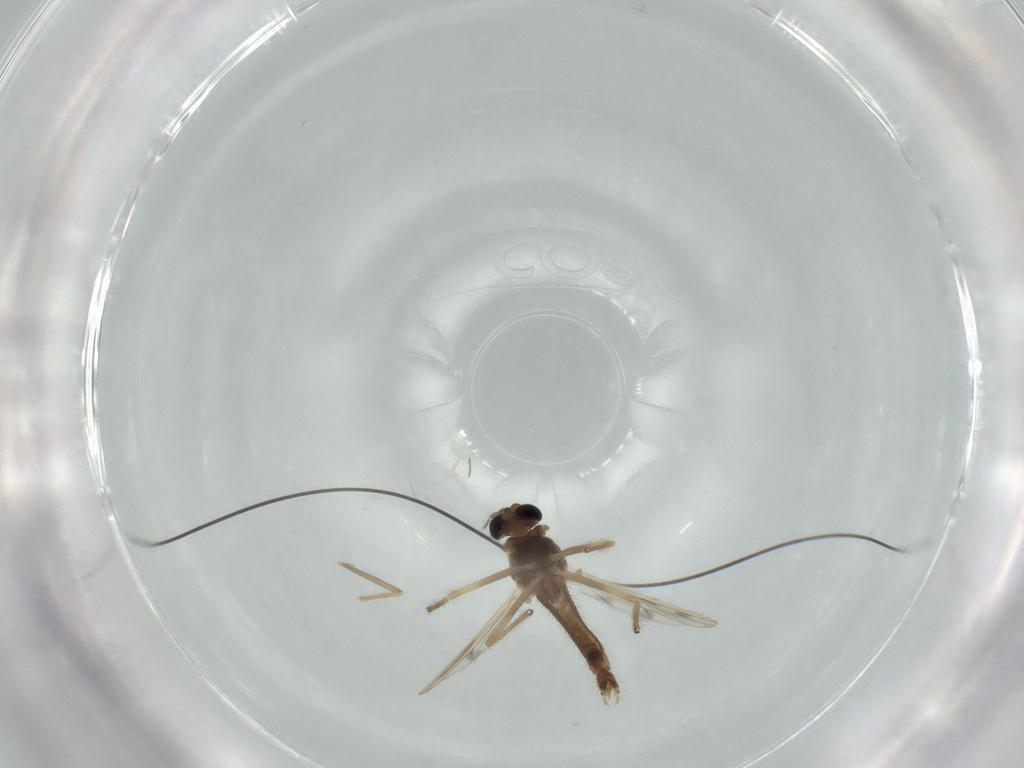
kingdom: Animalia
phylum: Arthropoda
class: Insecta
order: Diptera
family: Chironomidae
